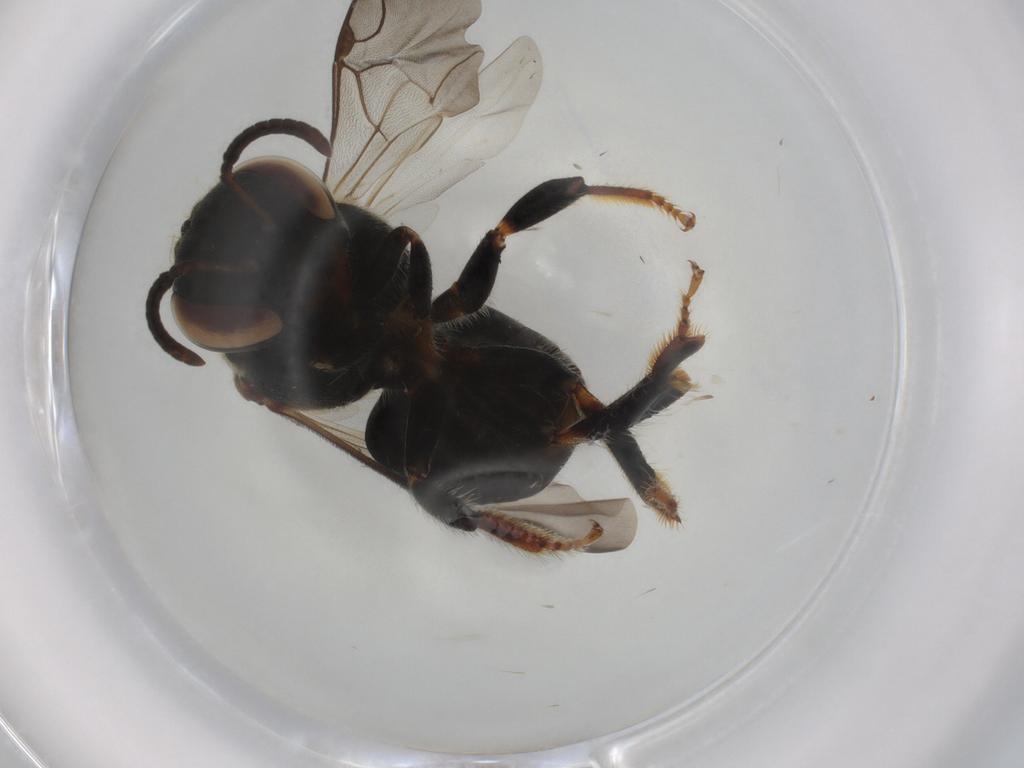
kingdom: Animalia
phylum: Arthropoda
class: Insecta
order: Hymenoptera
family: Apidae
